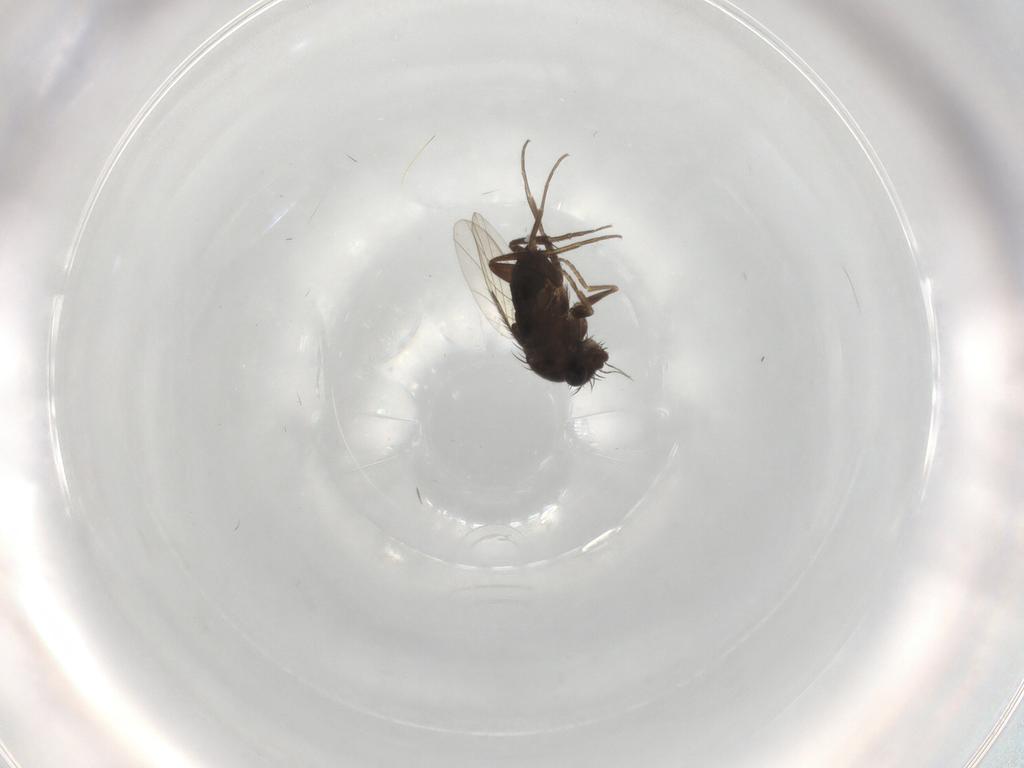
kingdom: Animalia
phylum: Arthropoda
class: Insecta
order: Diptera
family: Phoridae
